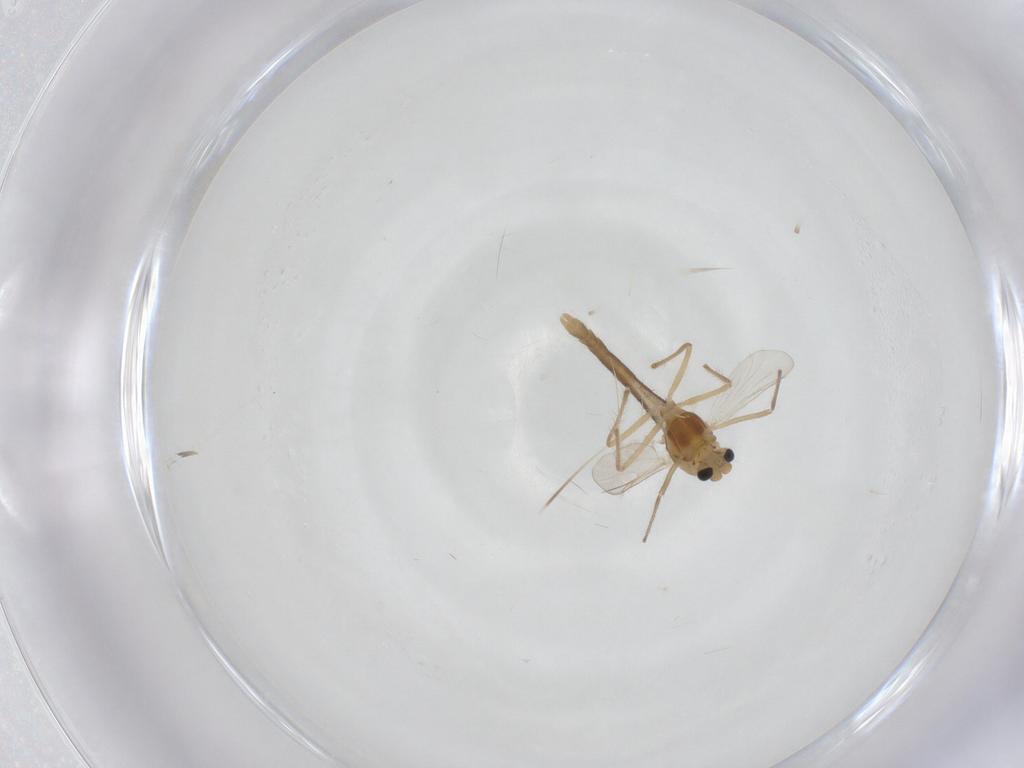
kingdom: Animalia
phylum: Arthropoda
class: Insecta
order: Diptera
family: Chironomidae
